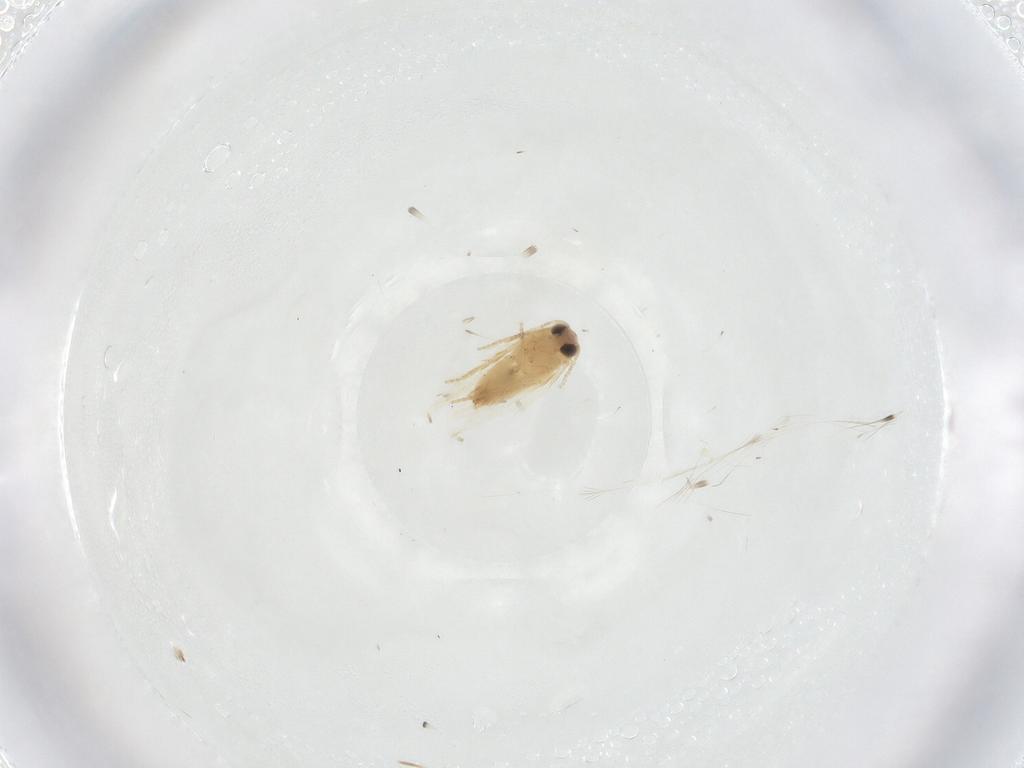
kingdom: Animalia
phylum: Arthropoda
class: Insecta
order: Lepidoptera
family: Crambidae
